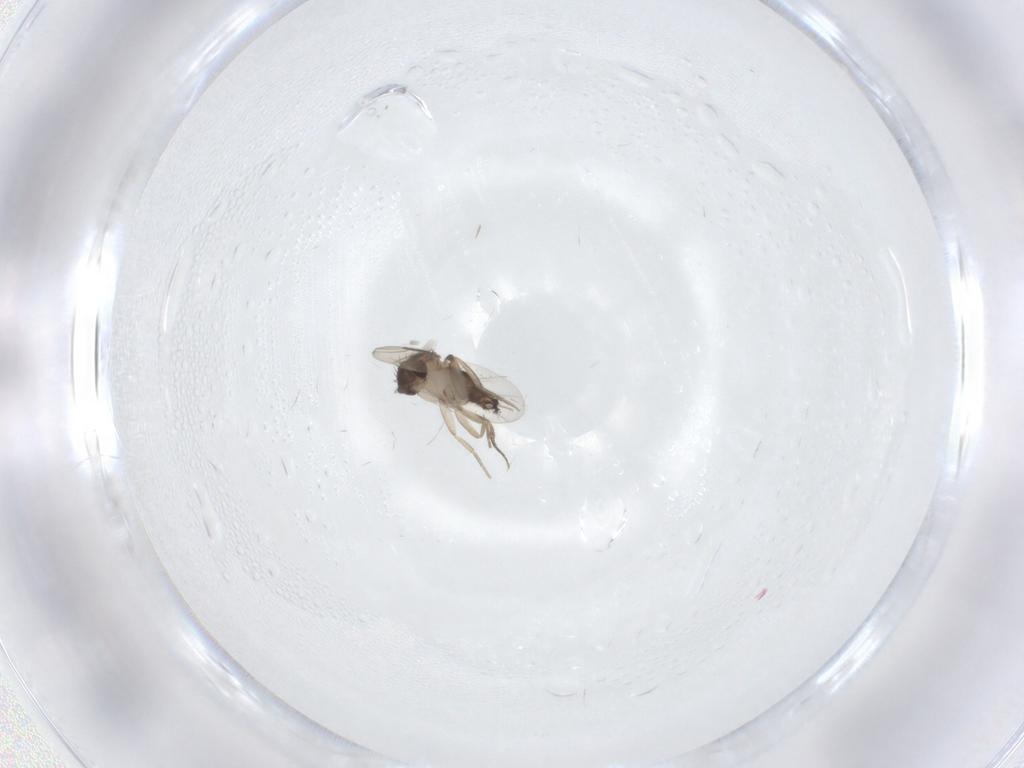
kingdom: Animalia
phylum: Arthropoda
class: Insecta
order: Diptera
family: Phoridae
